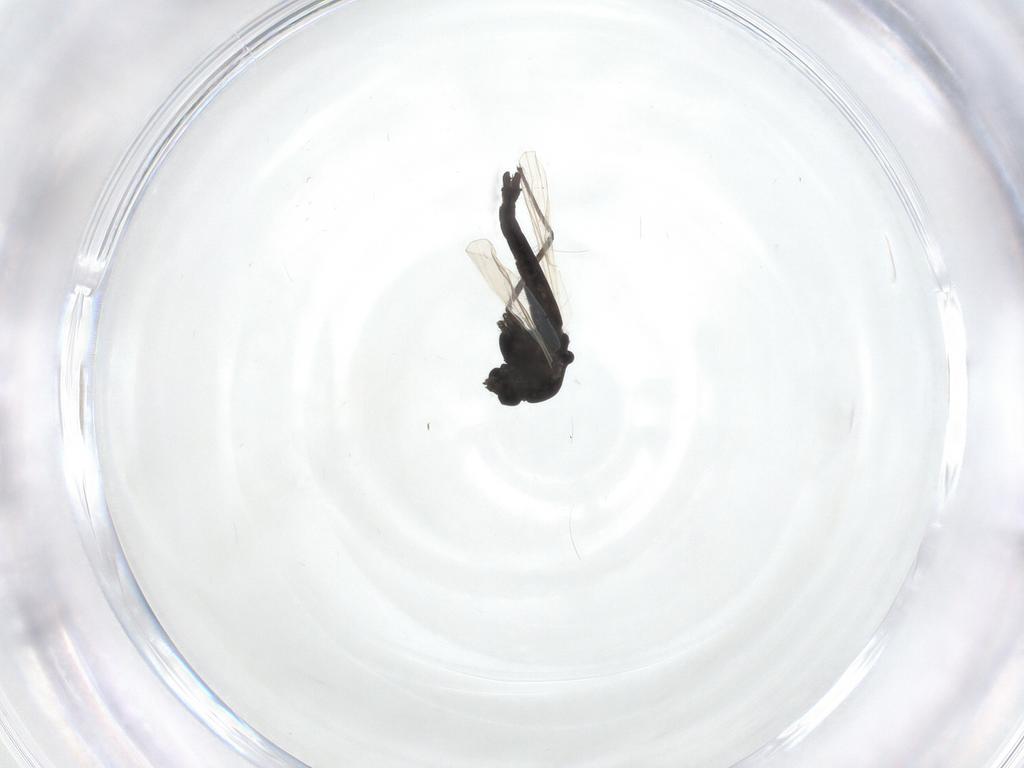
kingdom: Animalia
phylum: Arthropoda
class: Insecta
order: Diptera
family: Chironomidae
